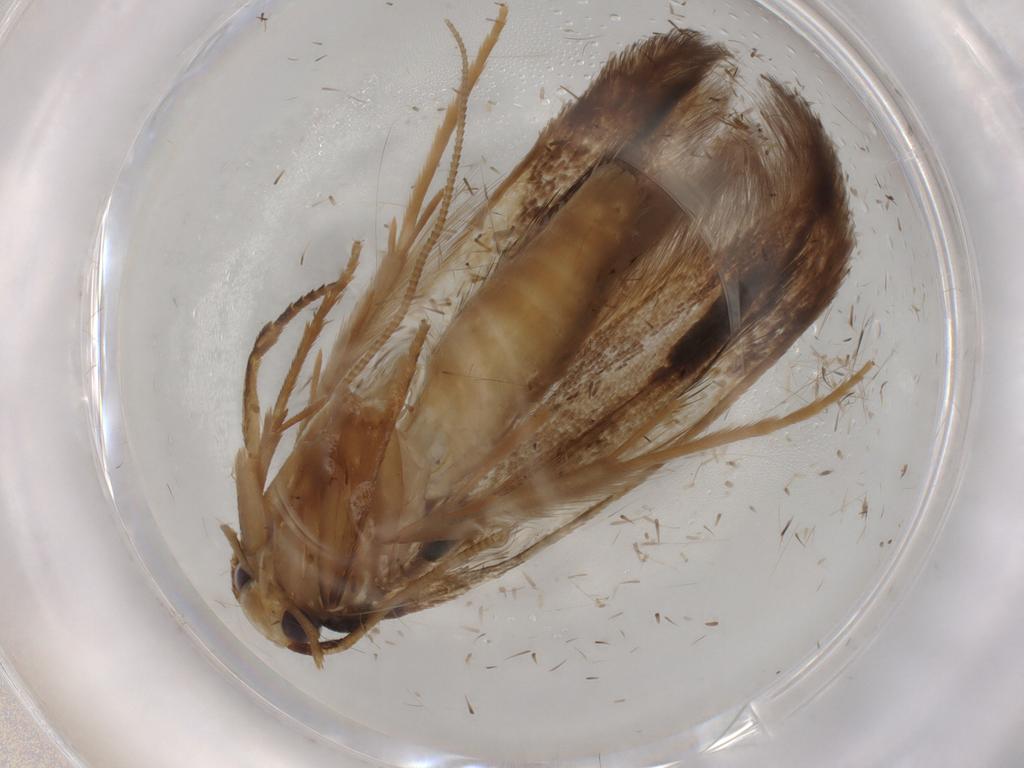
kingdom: Animalia
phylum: Arthropoda
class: Insecta
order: Lepidoptera
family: Tineidae
